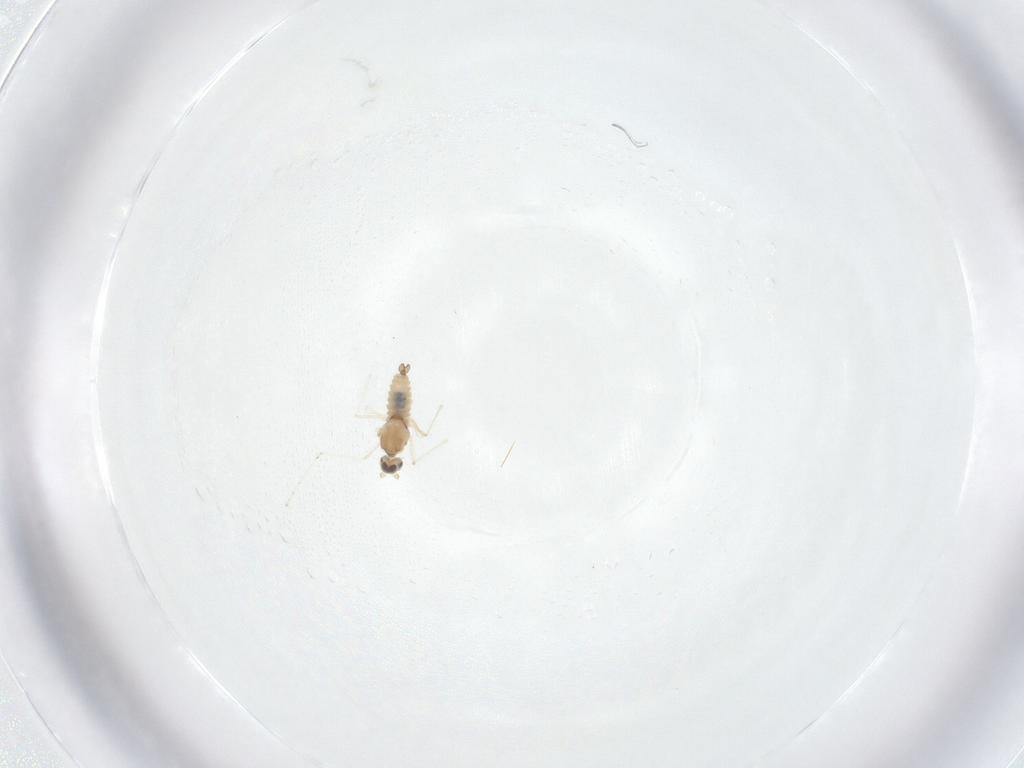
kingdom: Animalia
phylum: Arthropoda
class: Insecta
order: Diptera
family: Cecidomyiidae
